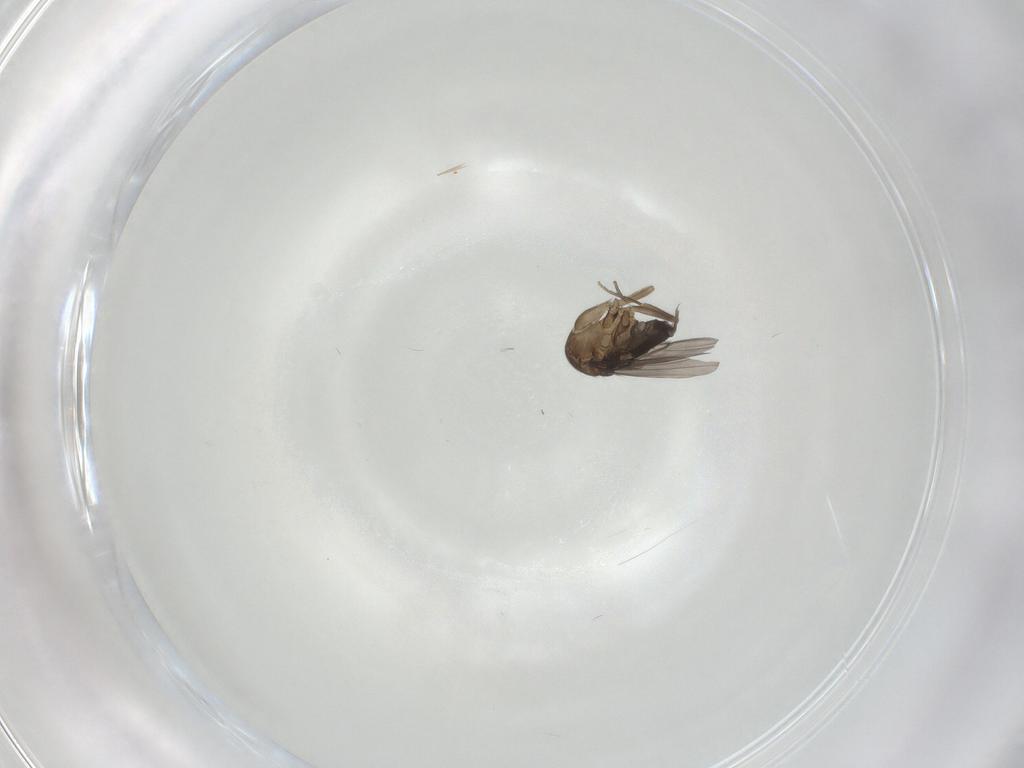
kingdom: Animalia
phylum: Arthropoda
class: Insecta
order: Diptera
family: Phoridae
